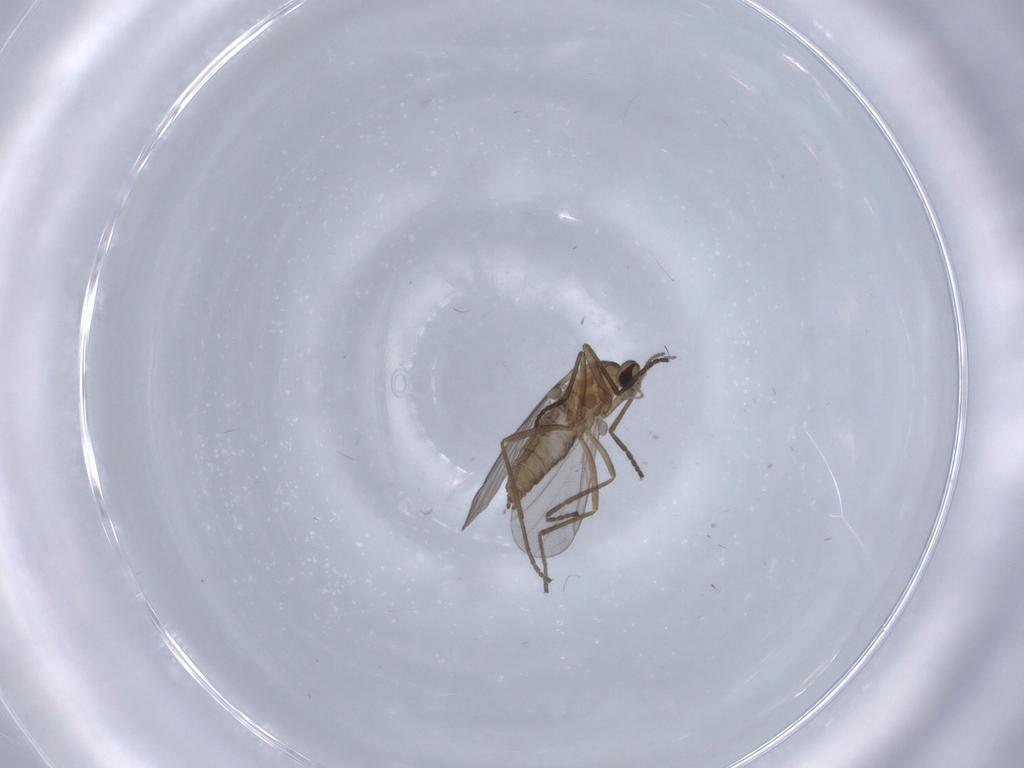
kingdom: Animalia
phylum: Arthropoda
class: Insecta
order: Diptera
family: Cecidomyiidae
